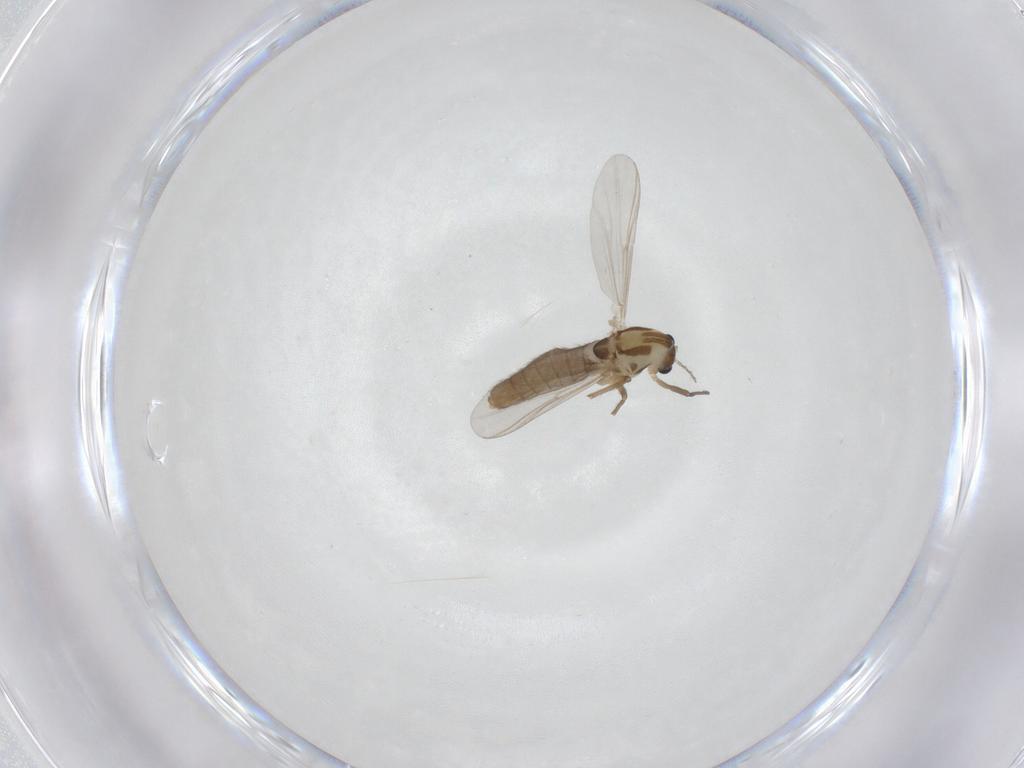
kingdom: Animalia
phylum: Arthropoda
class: Insecta
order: Diptera
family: Chironomidae
